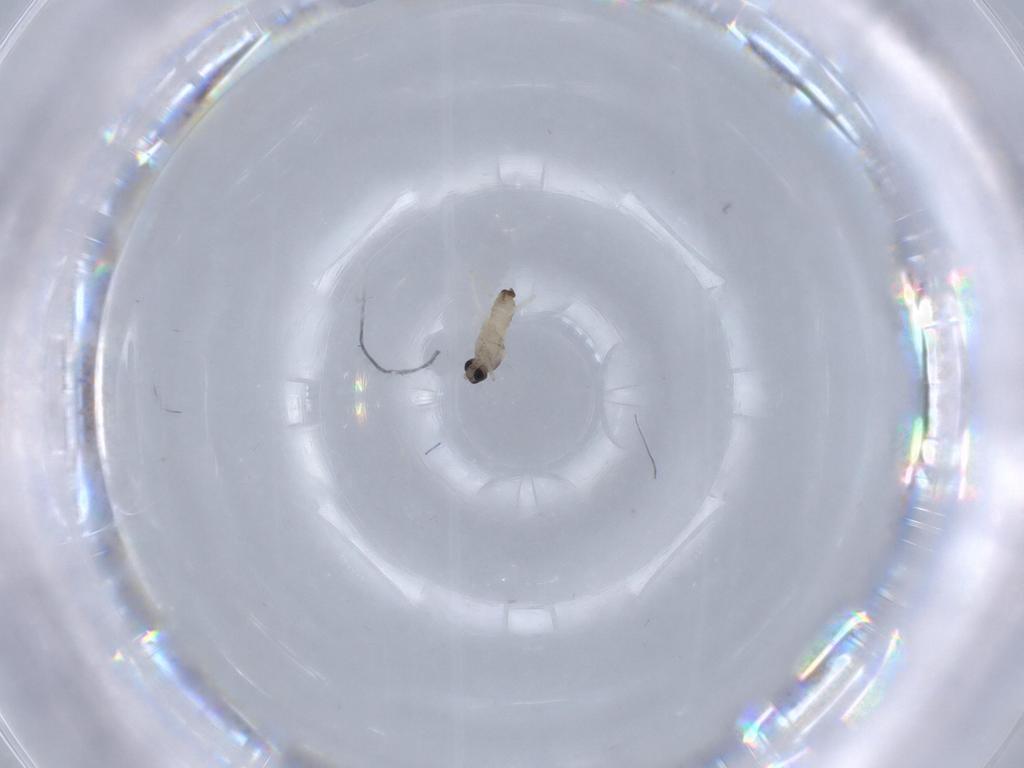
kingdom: Animalia
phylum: Arthropoda
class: Insecta
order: Diptera
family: Cecidomyiidae
